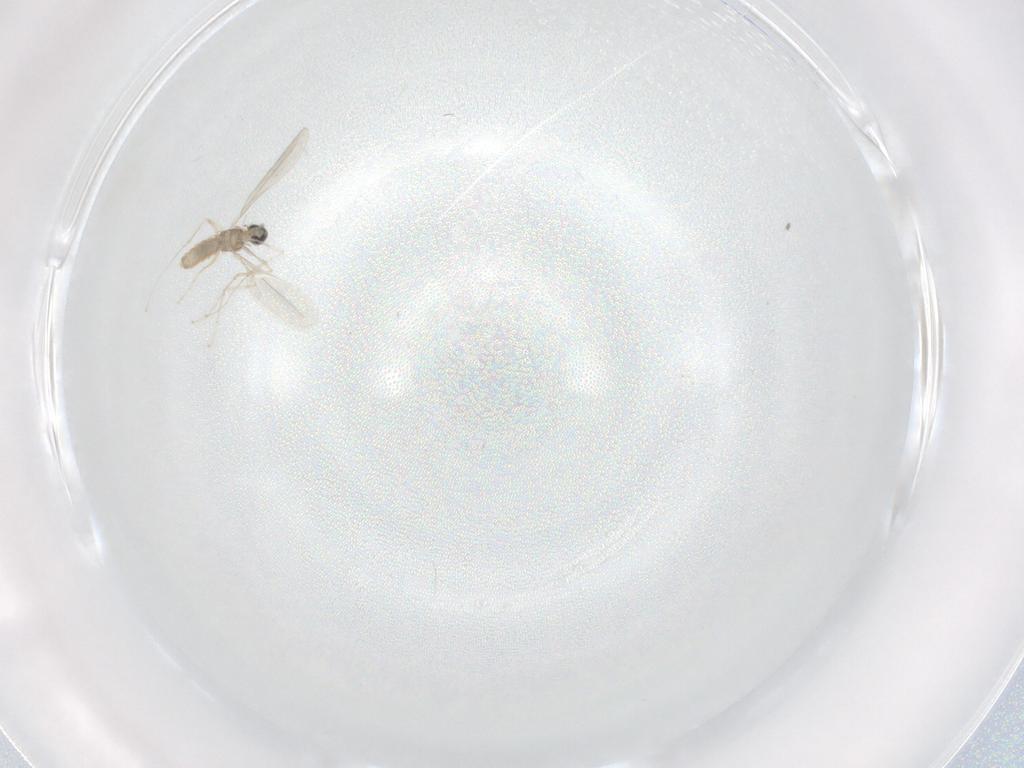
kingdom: Animalia
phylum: Arthropoda
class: Insecta
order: Diptera
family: Cecidomyiidae
